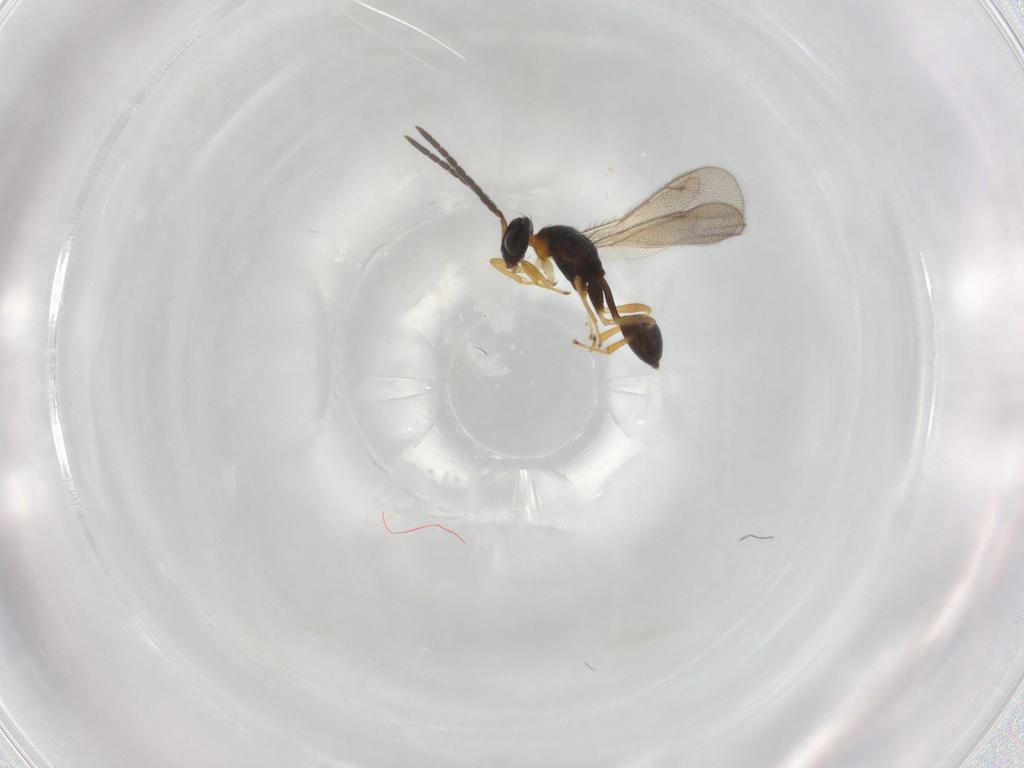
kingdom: Animalia
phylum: Arthropoda
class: Insecta
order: Hymenoptera
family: Diparidae
